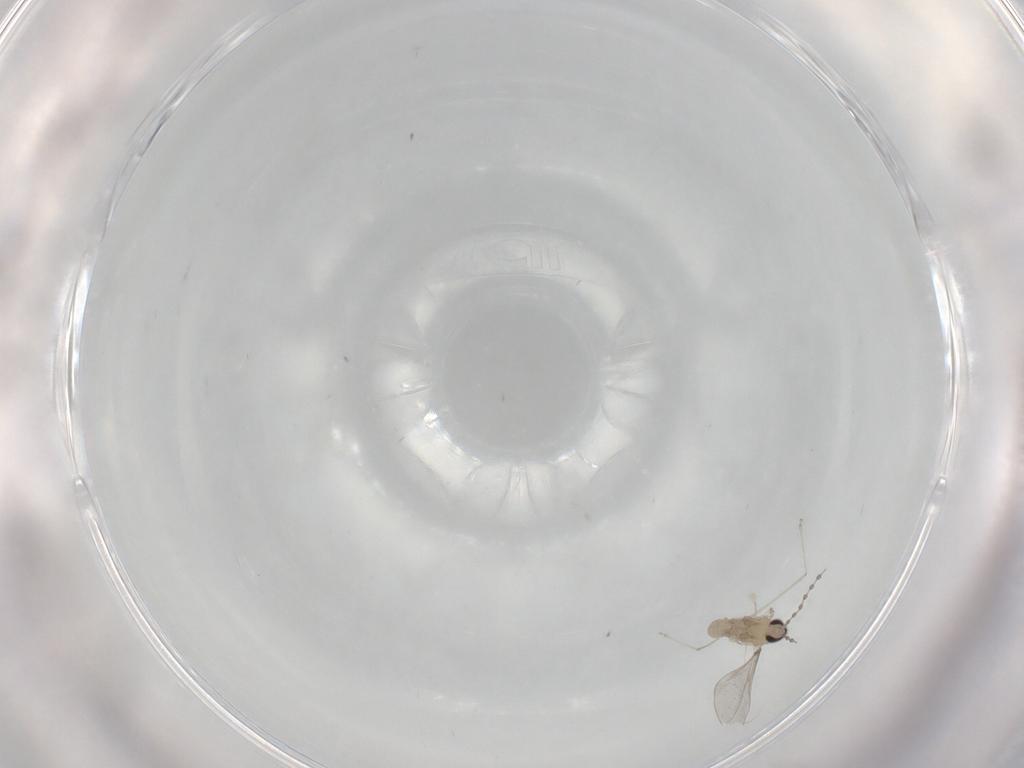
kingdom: Animalia
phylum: Arthropoda
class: Insecta
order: Diptera
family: Cecidomyiidae
